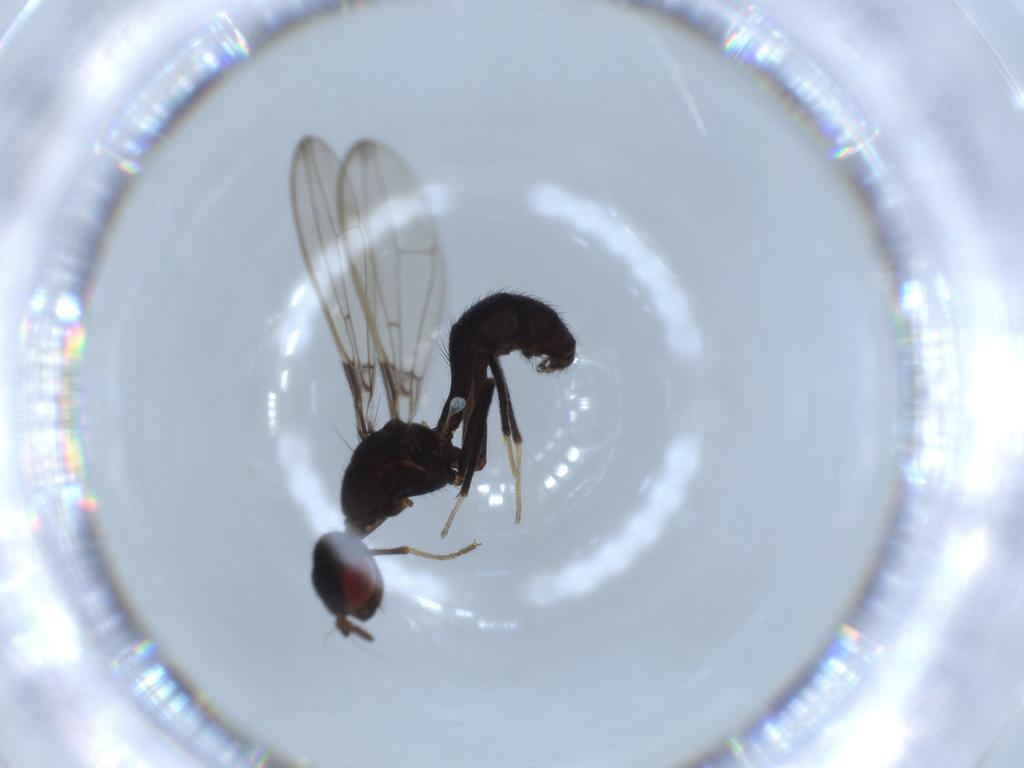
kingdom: Animalia
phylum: Arthropoda
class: Insecta
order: Diptera
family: Richardiidae
